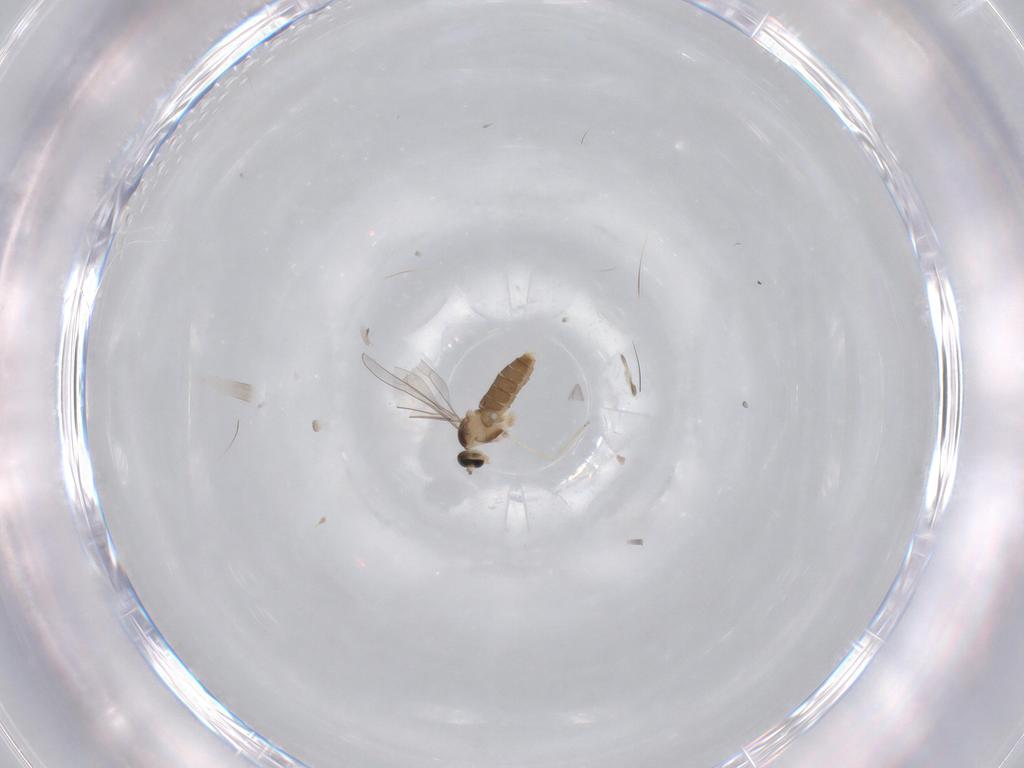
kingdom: Animalia
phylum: Arthropoda
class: Insecta
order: Diptera
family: Cecidomyiidae
